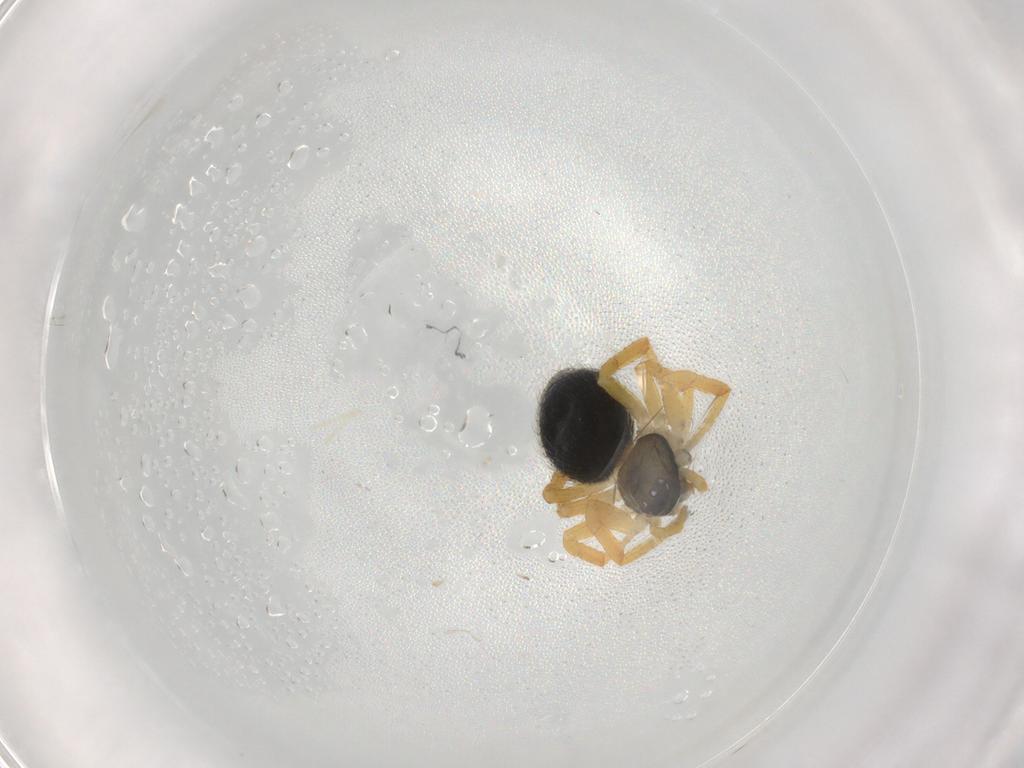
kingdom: Animalia
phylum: Arthropoda
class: Arachnida
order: Araneae
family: Theridiidae
